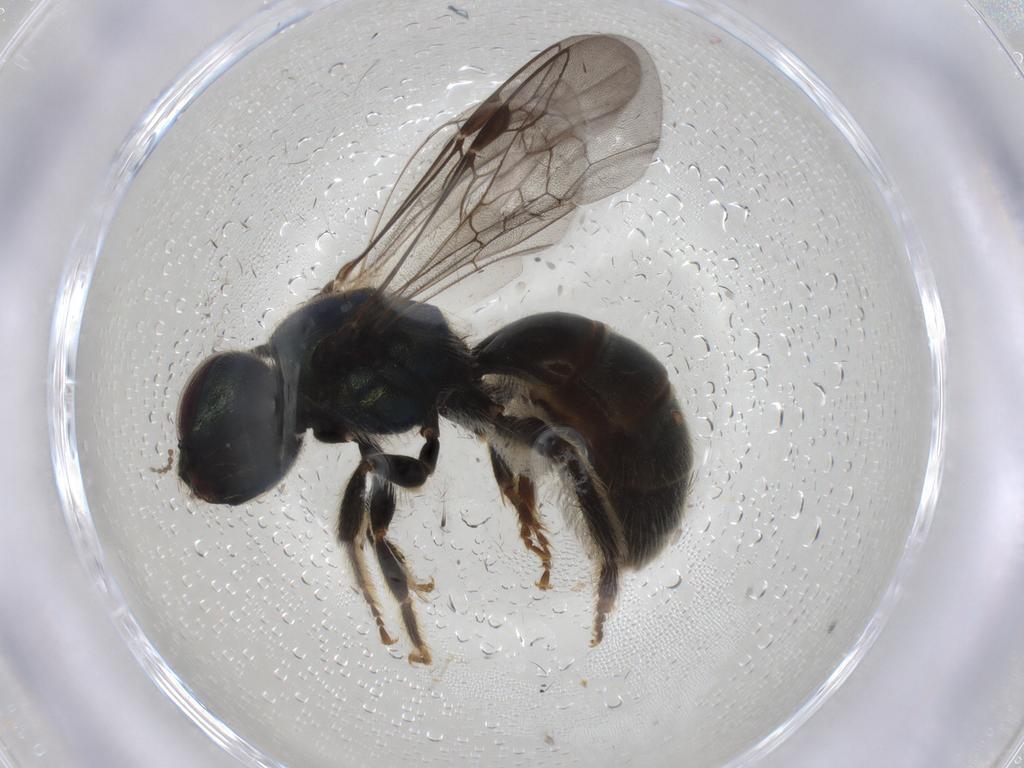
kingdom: Animalia
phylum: Arthropoda
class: Insecta
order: Hymenoptera
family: Halictidae
